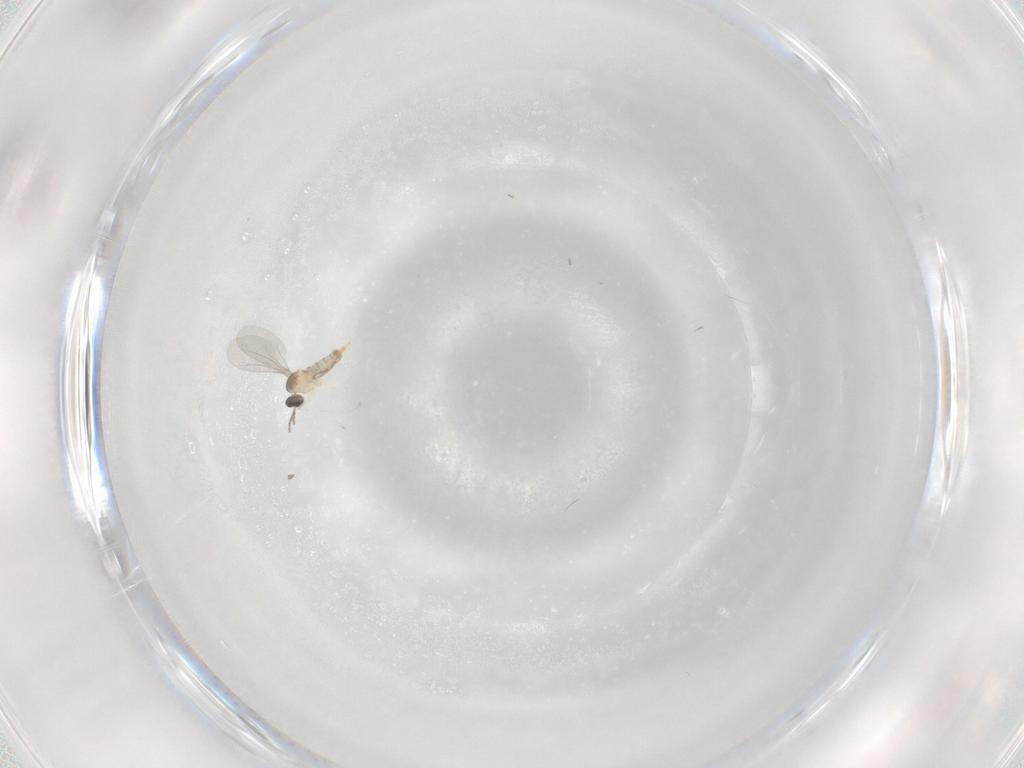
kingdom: Animalia
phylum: Arthropoda
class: Insecta
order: Diptera
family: Cecidomyiidae
